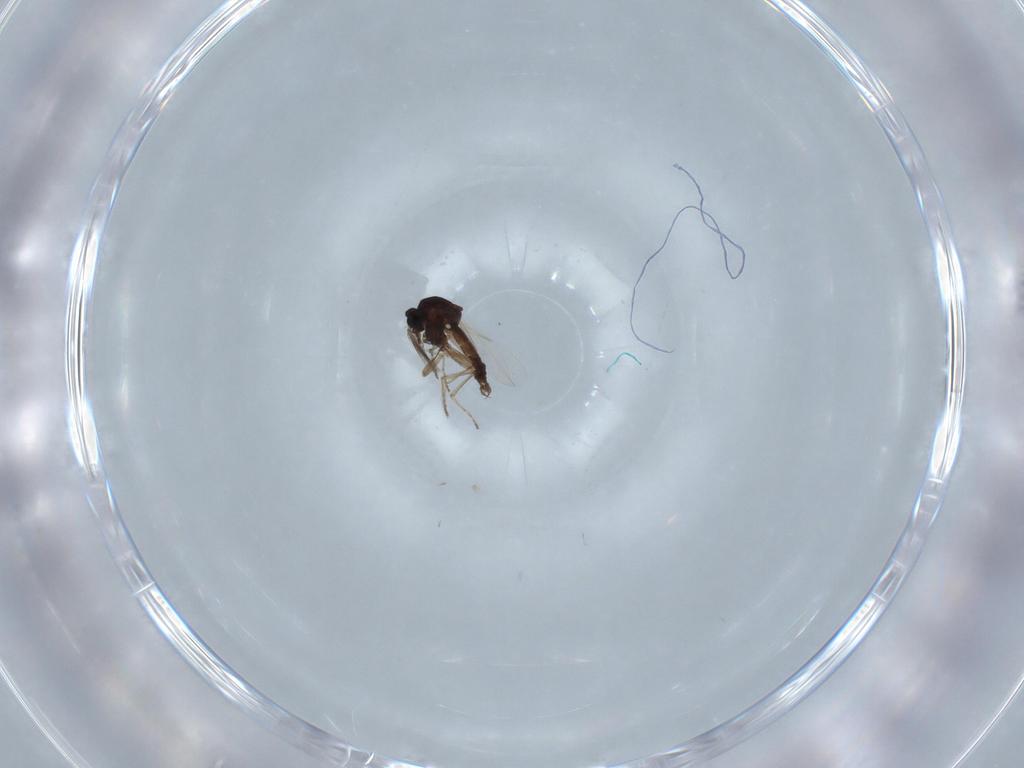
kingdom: Animalia
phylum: Arthropoda
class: Insecta
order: Diptera
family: Ceratopogonidae
